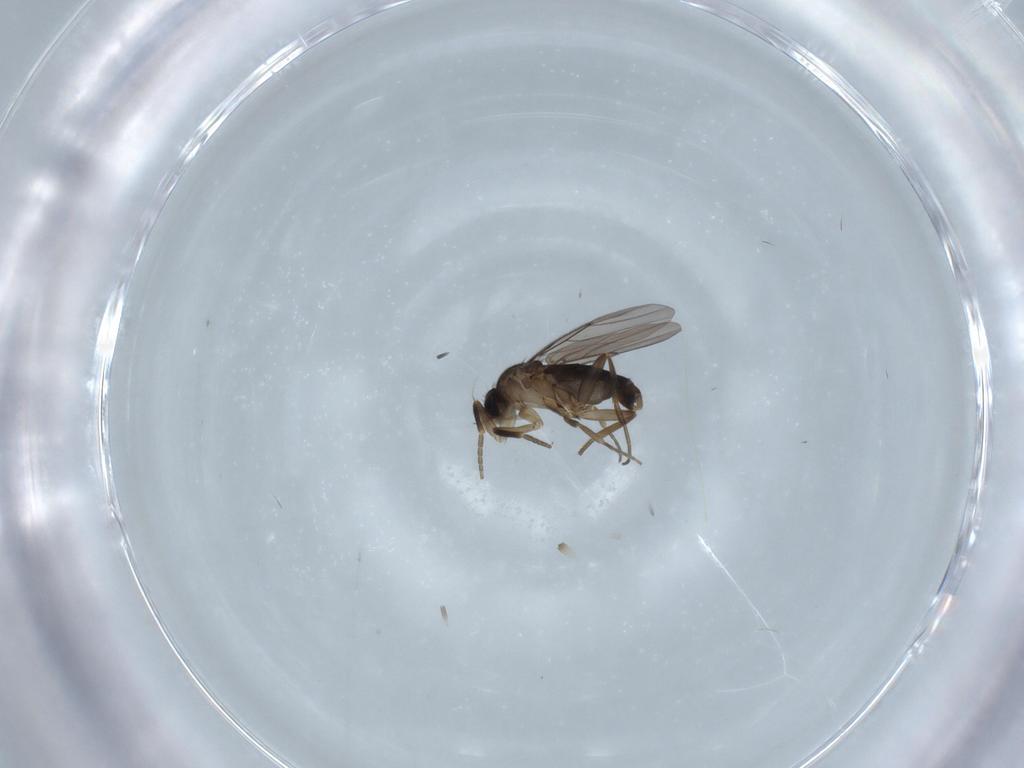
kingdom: Animalia
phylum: Arthropoda
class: Insecta
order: Diptera
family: Phoridae
